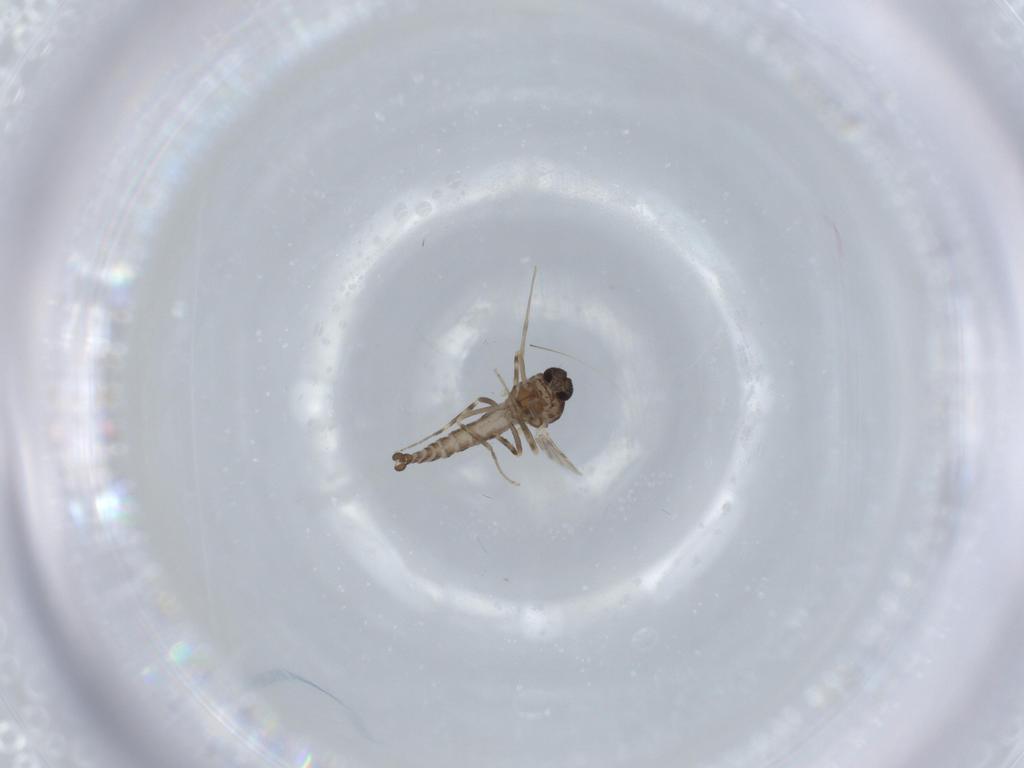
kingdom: Animalia
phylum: Arthropoda
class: Insecta
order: Diptera
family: Ceratopogonidae
